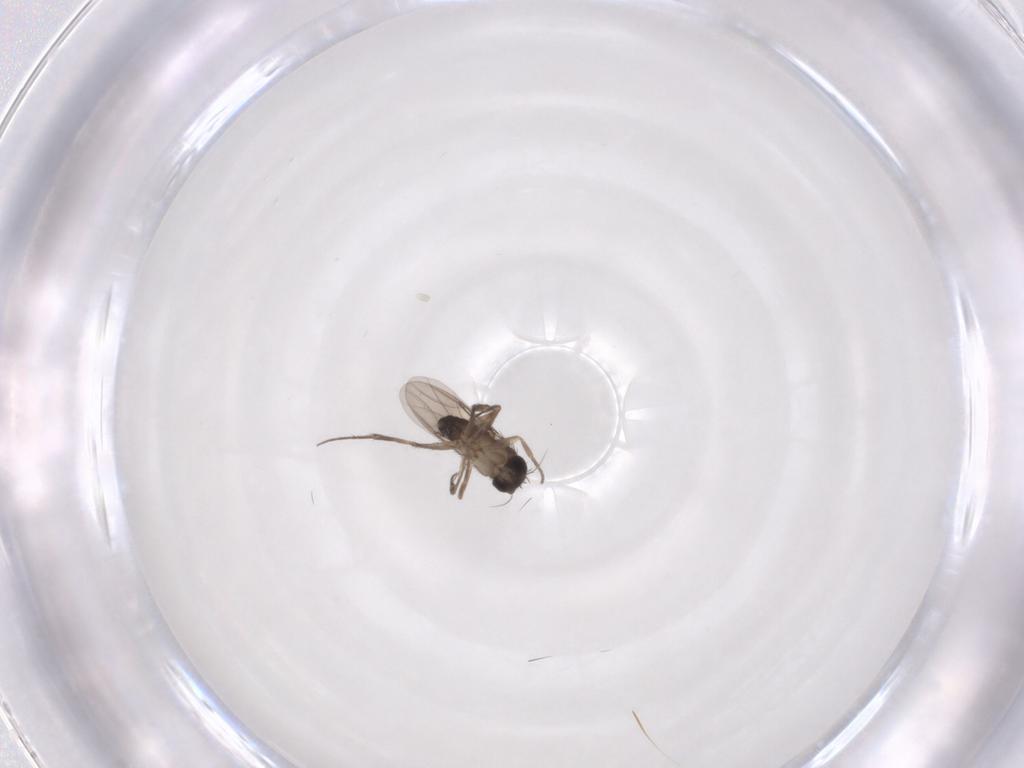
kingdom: Animalia
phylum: Arthropoda
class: Insecta
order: Diptera
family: Phoridae
